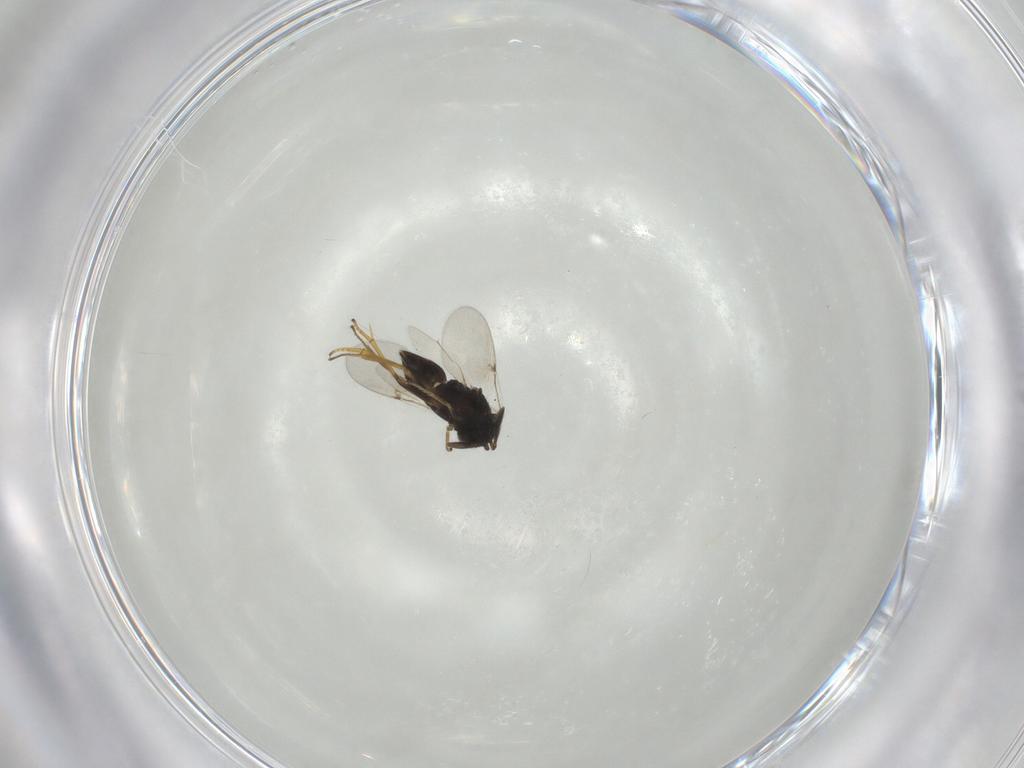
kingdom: Animalia
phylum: Arthropoda
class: Insecta
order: Hymenoptera
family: Encyrtidae
